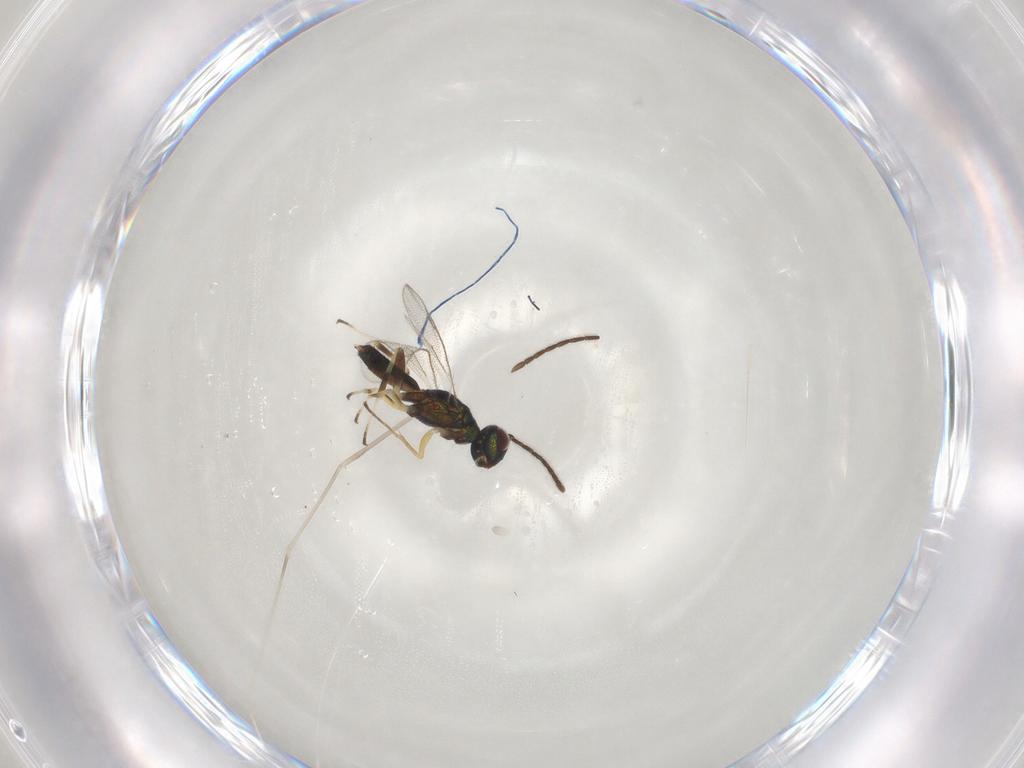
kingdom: Animalia
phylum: Arthropoda
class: Insecta
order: Hymenoptera
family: Eupelmidae
